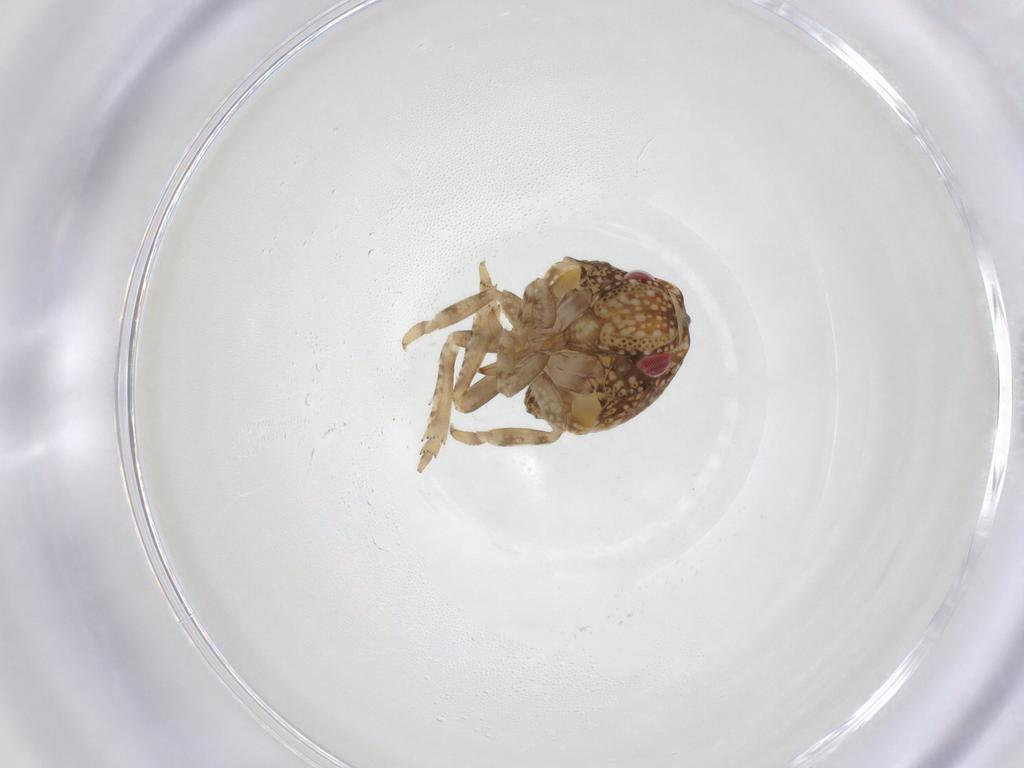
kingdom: Animalia
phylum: Arthropoda
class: Insecta
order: Hemiptera
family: Acanaloniidae
